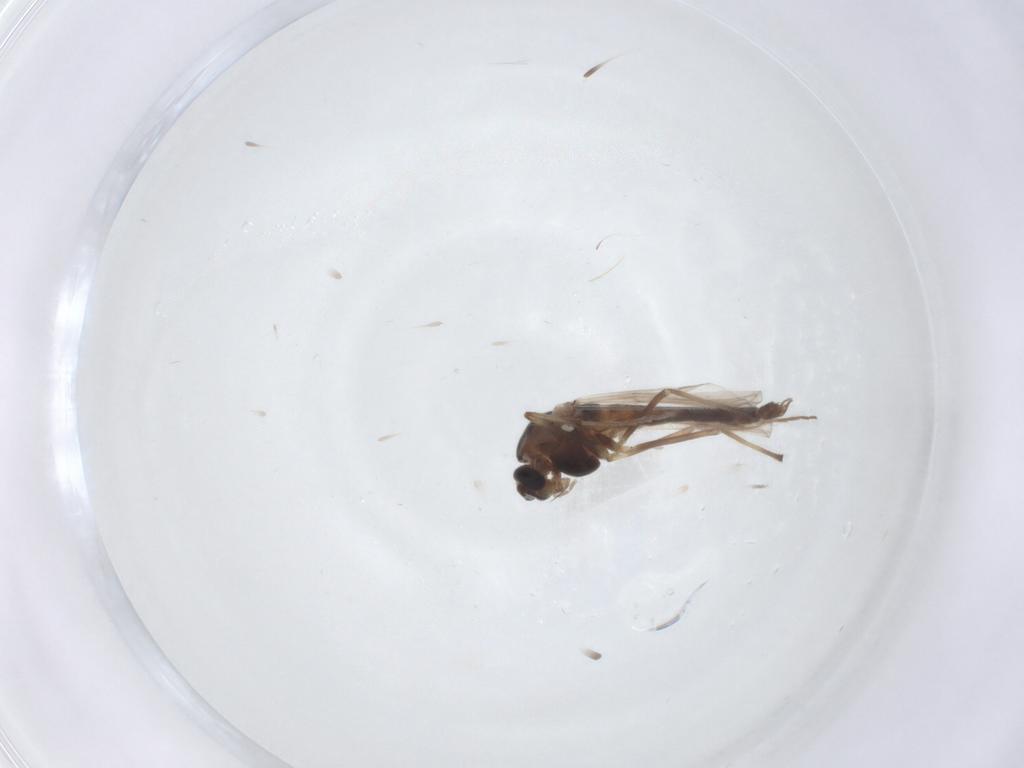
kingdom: Animalia
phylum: Arthropoda
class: Insecta
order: Diptera
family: Chironomidae
